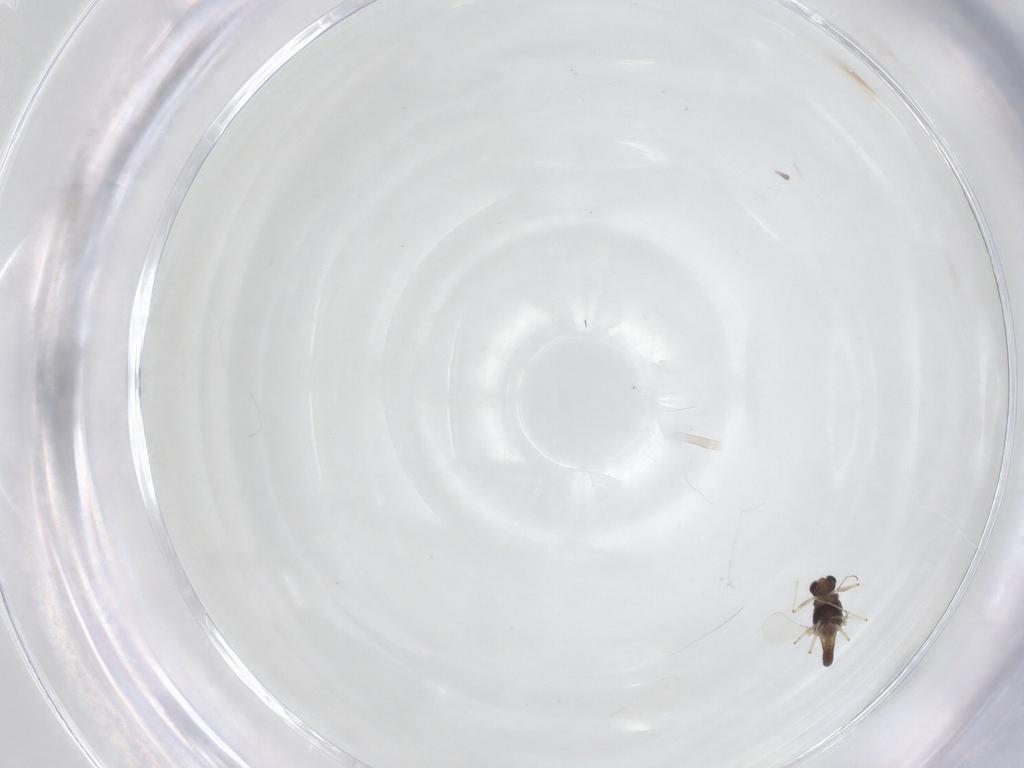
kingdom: Animalia
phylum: Arthropoda
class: Insecta
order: Diptera
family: Chironomidae
